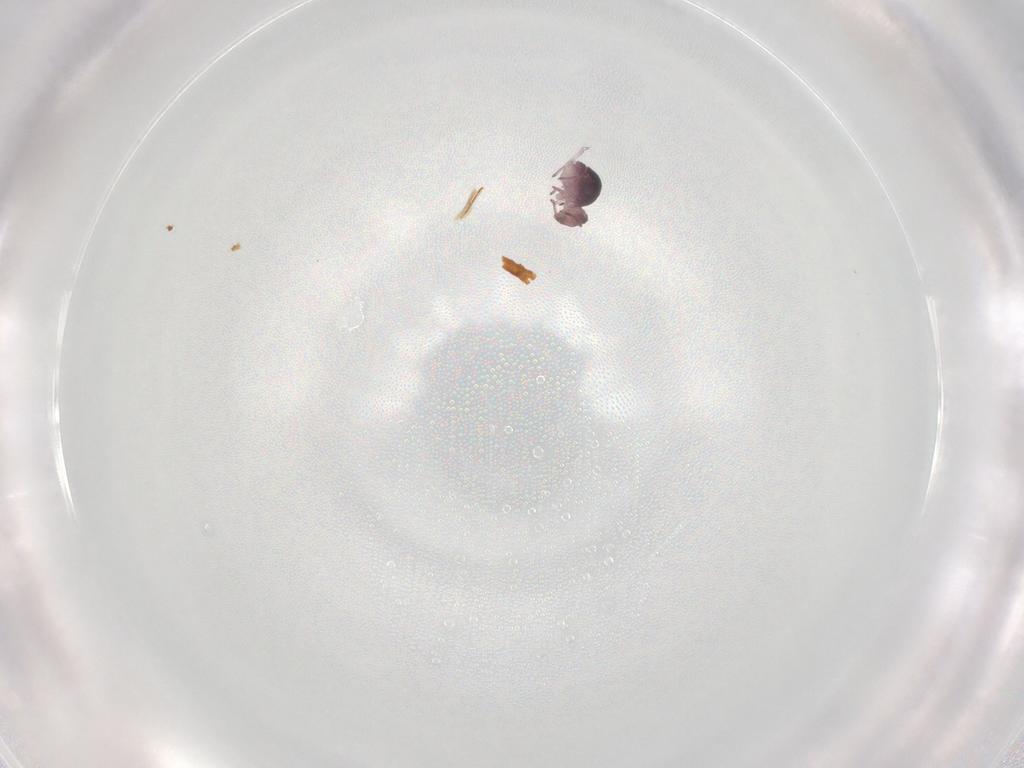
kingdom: Animalia
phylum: Arthropoda
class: Collembola
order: Symphypleona
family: Sminthurididae
